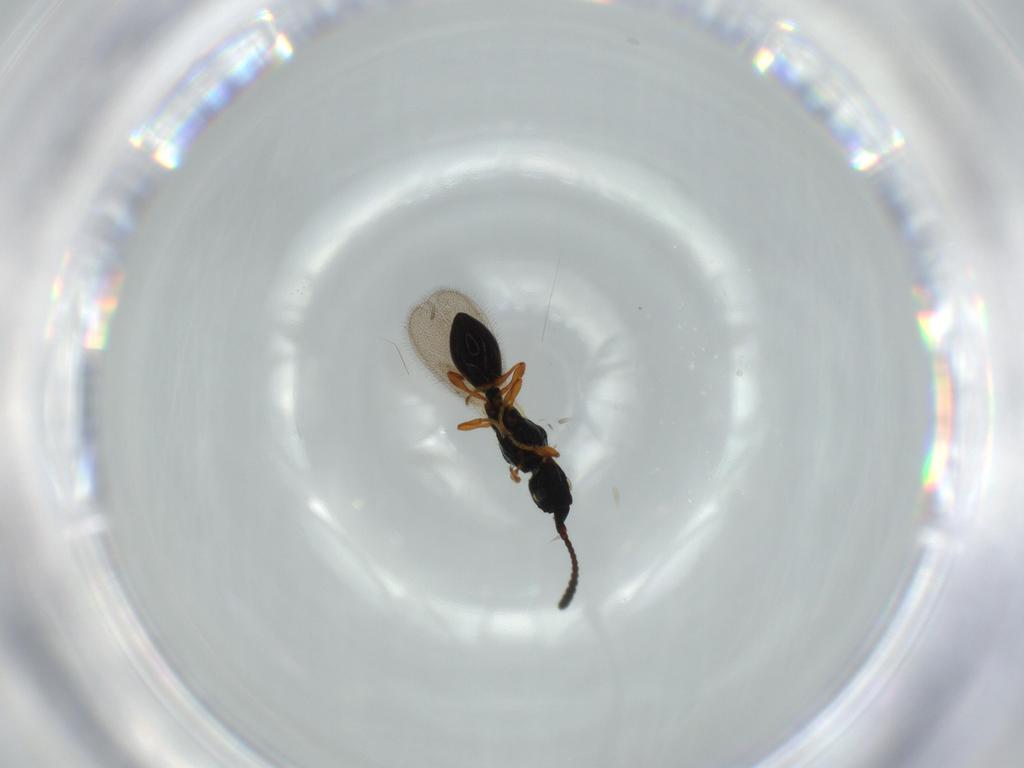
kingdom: Animalia
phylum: Arthropoda
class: Insecta
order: Hymenoptera
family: Diapriidae
